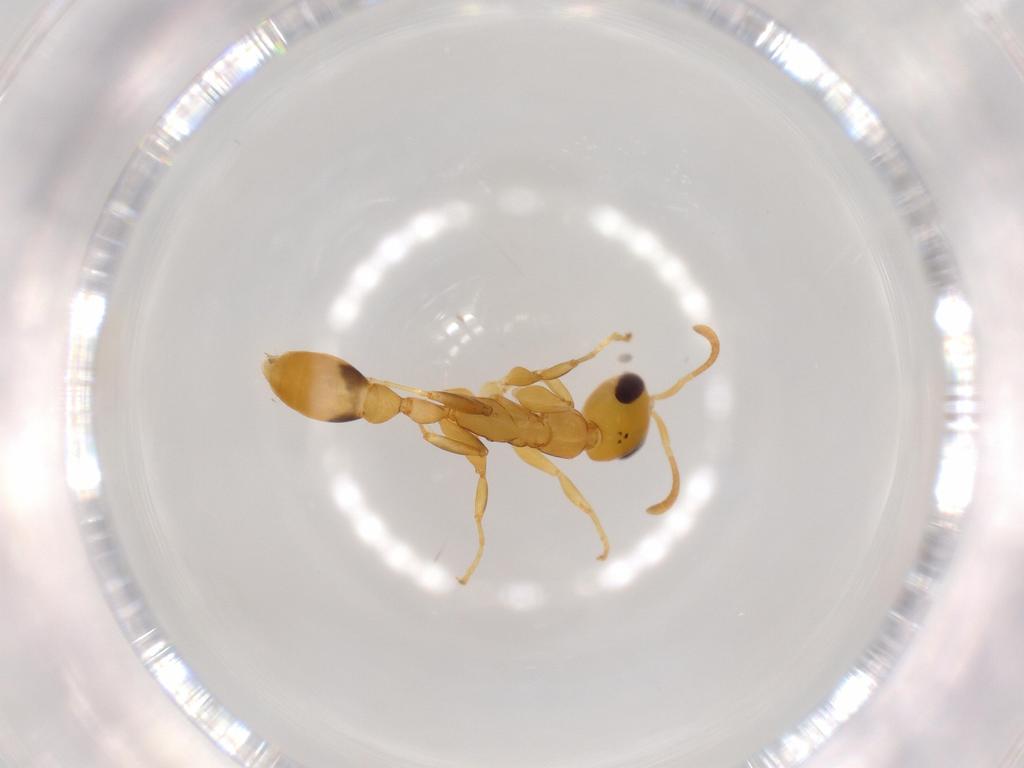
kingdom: Animalia
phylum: Arthropoda
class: Insecta
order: Hymenoptera
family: Formicidae
